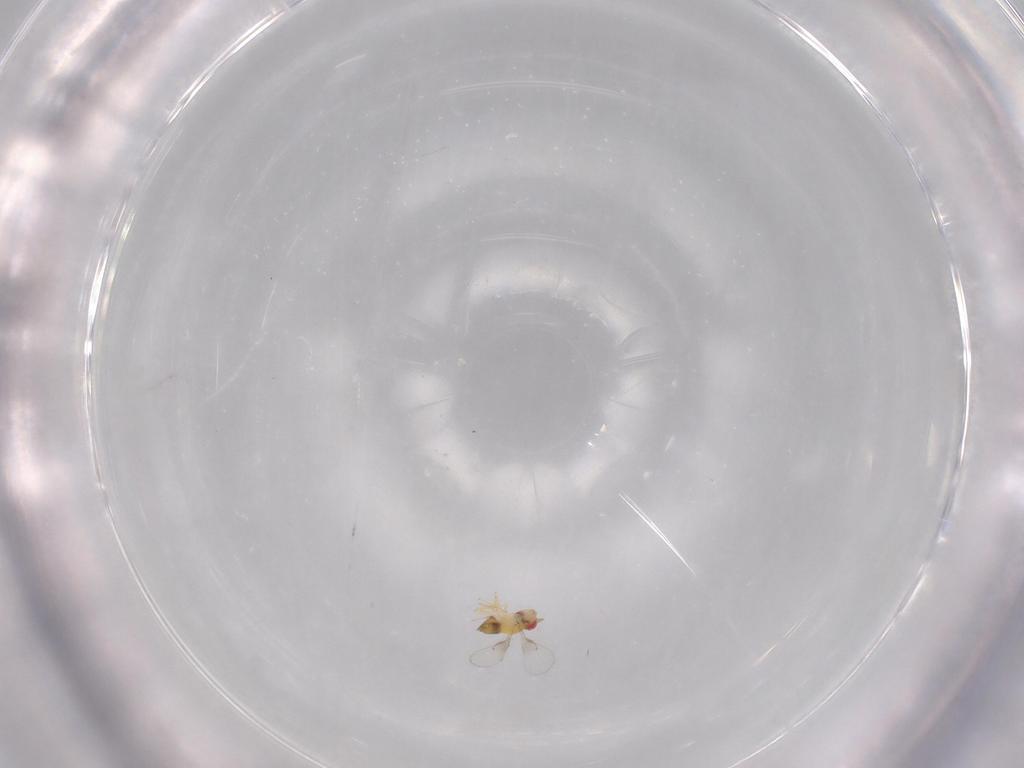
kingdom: Animalia
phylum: Arthropoda
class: Insecta
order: Hymenoptera
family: Trichogrammatidae
